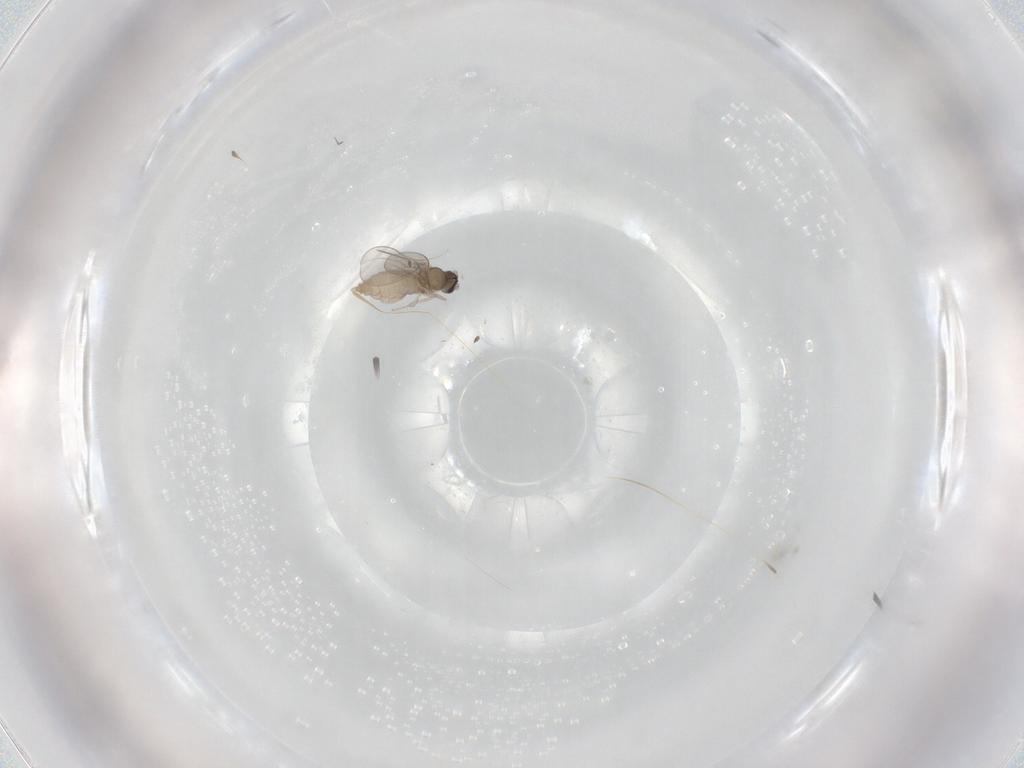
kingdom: Animalia
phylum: Arthropoda
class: Insecta
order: Diptera
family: Cecidomyiidae
